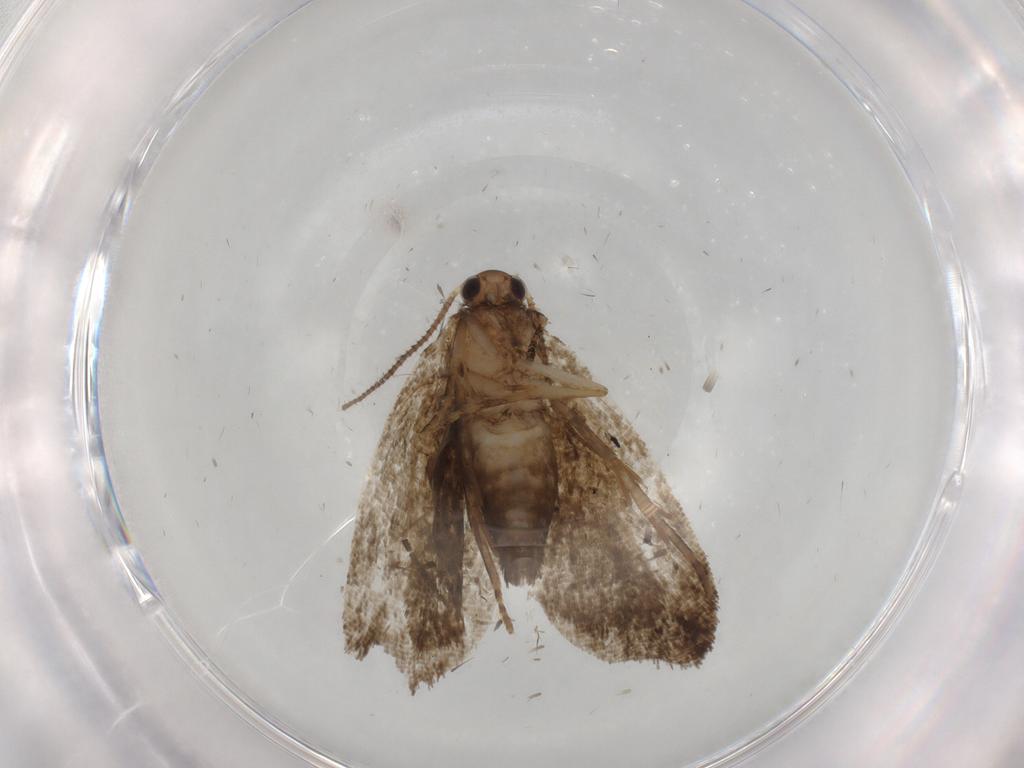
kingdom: Animalia
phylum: Arthropoda
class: Insecta
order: Lepidoptera
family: Tortricidae
